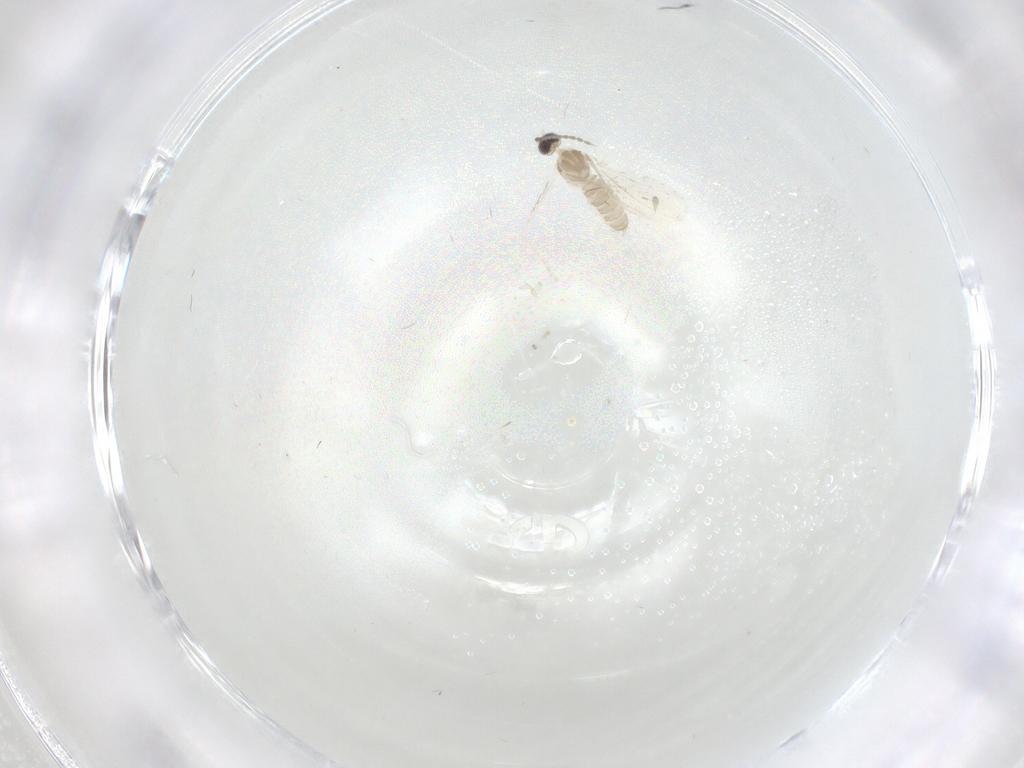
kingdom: Animalia
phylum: Arthropoda
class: Insecta
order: Diptera
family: Cecidomyiidae
